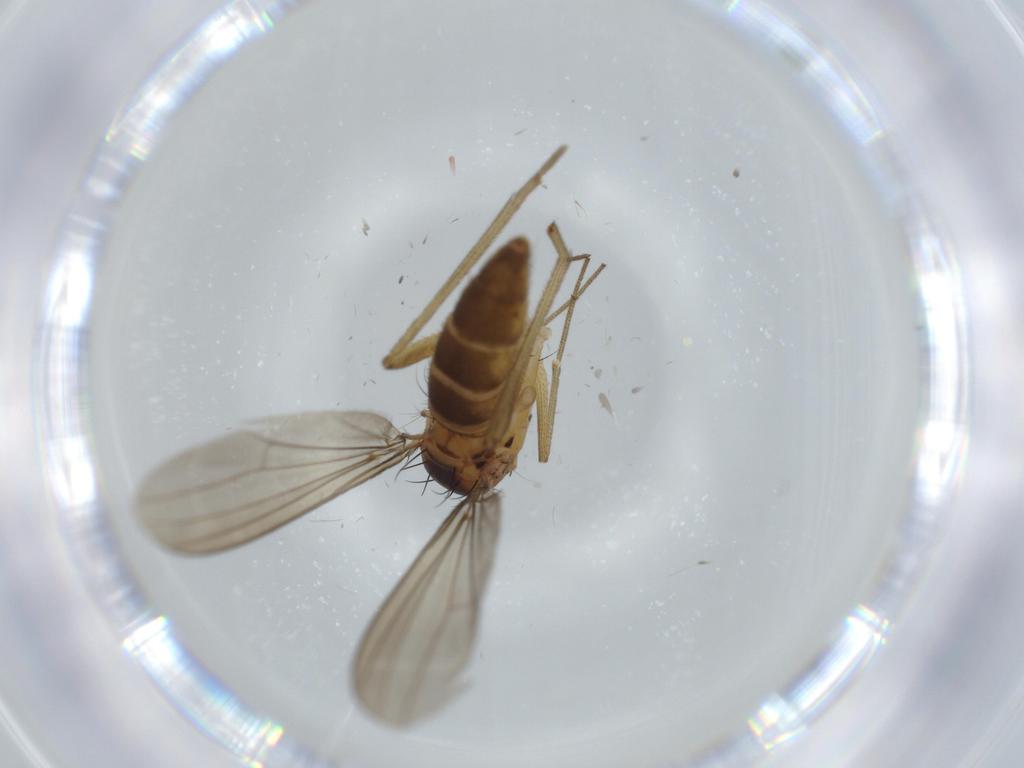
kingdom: Animalia
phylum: Arthropoda
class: Insecta
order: Diptera
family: Dolichopodidae
